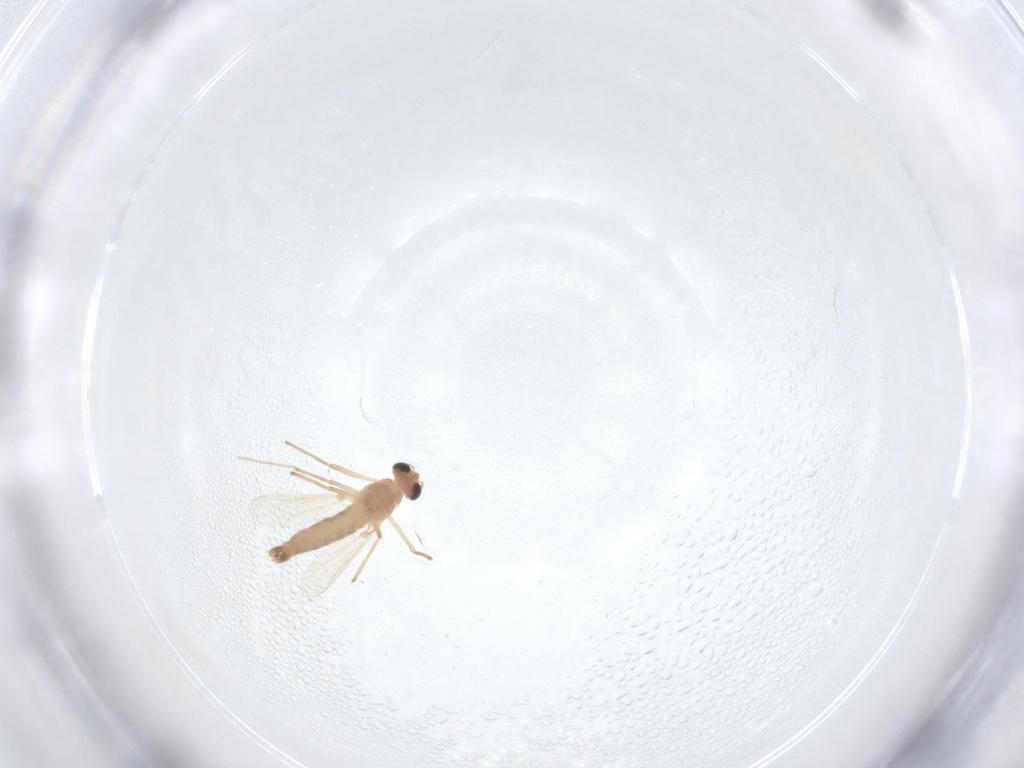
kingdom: Animalia
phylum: Arthropoda
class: Insecta
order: Diptera
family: Chironomidae
